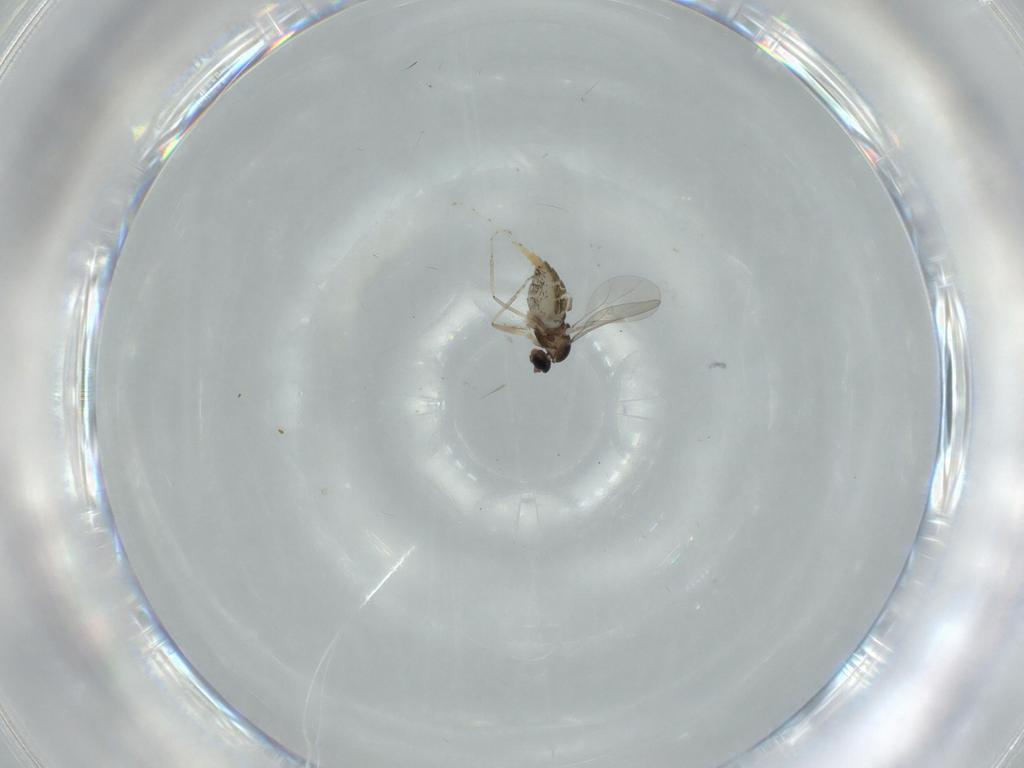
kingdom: Animalia
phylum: Arthropoda
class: Insecta
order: Diptera
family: Cecidomyiidae
